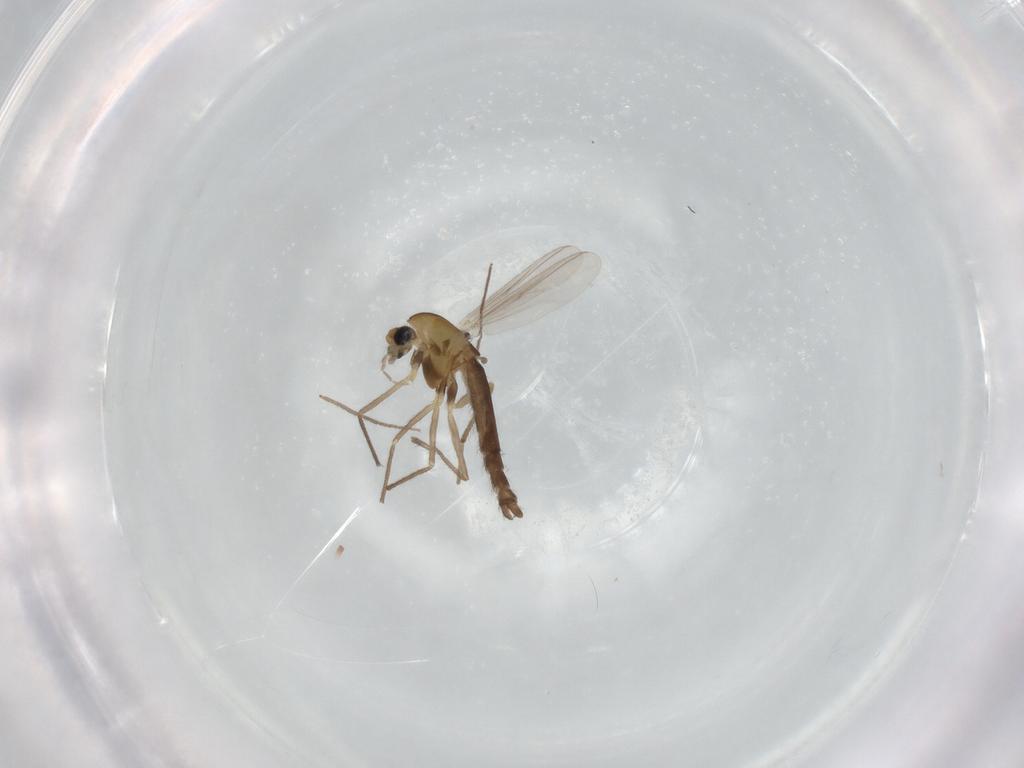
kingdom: Animalia
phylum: Arthropoda
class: Insecta
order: Diptera
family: Chironomidae
